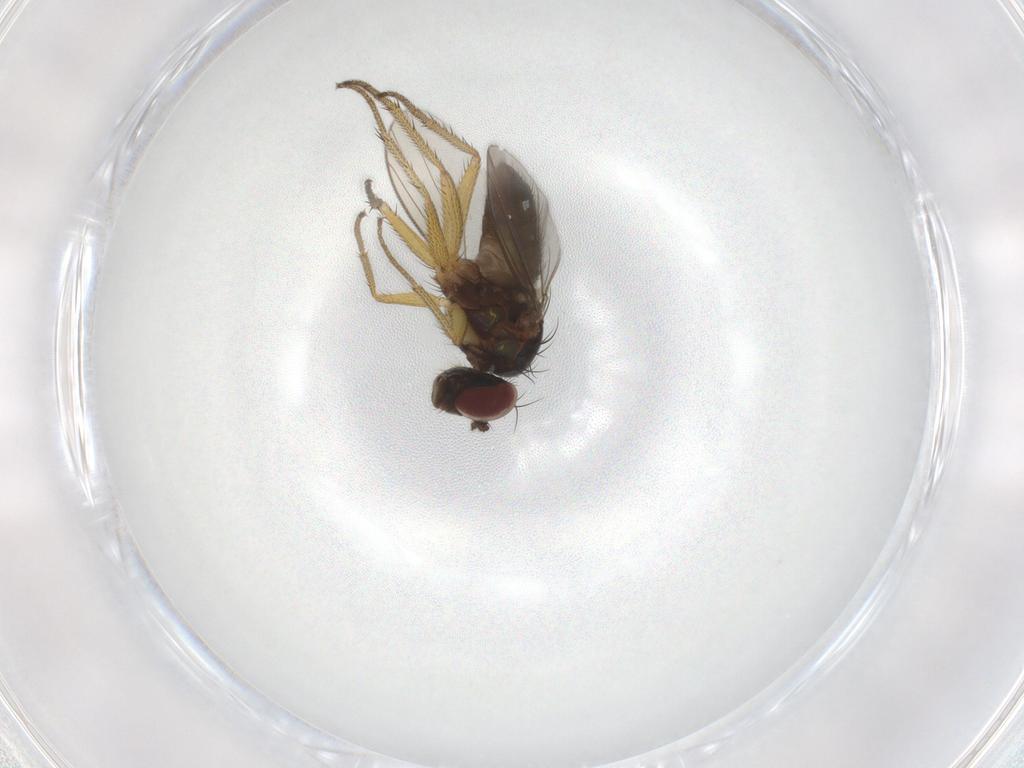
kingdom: Animalia
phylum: Arthropoda
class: Insecta
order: Diptera
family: Dolichopodidae
